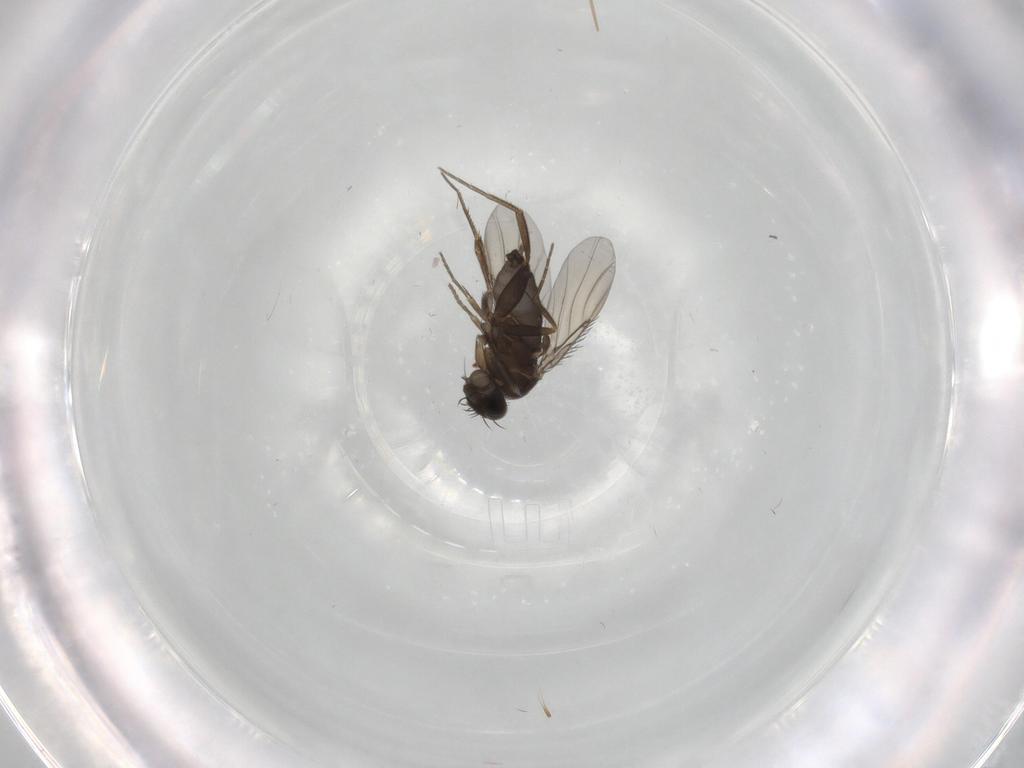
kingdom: Animalia
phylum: Arthropoda
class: Insecta
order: Diptera
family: Phoridae
